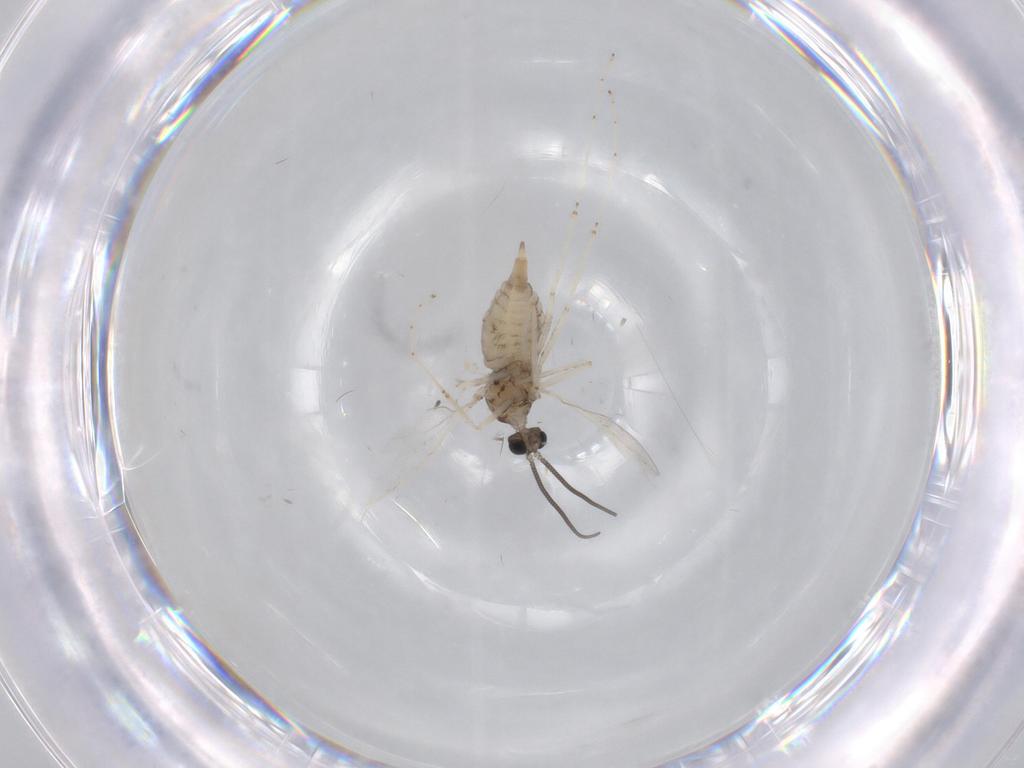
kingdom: Animalia
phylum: Arthropoda
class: Insecta
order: Diptera
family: Cecidomyiidae
